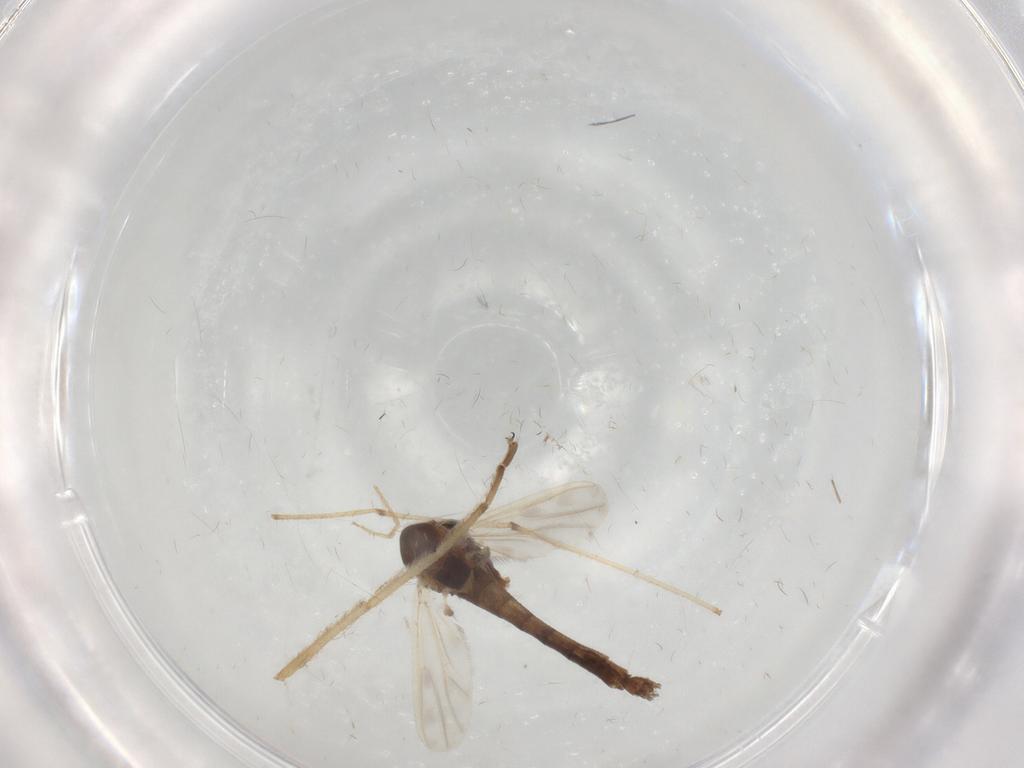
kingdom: Animalia
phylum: Arthropoda
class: Insecta
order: Diptera
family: Chironomidae
